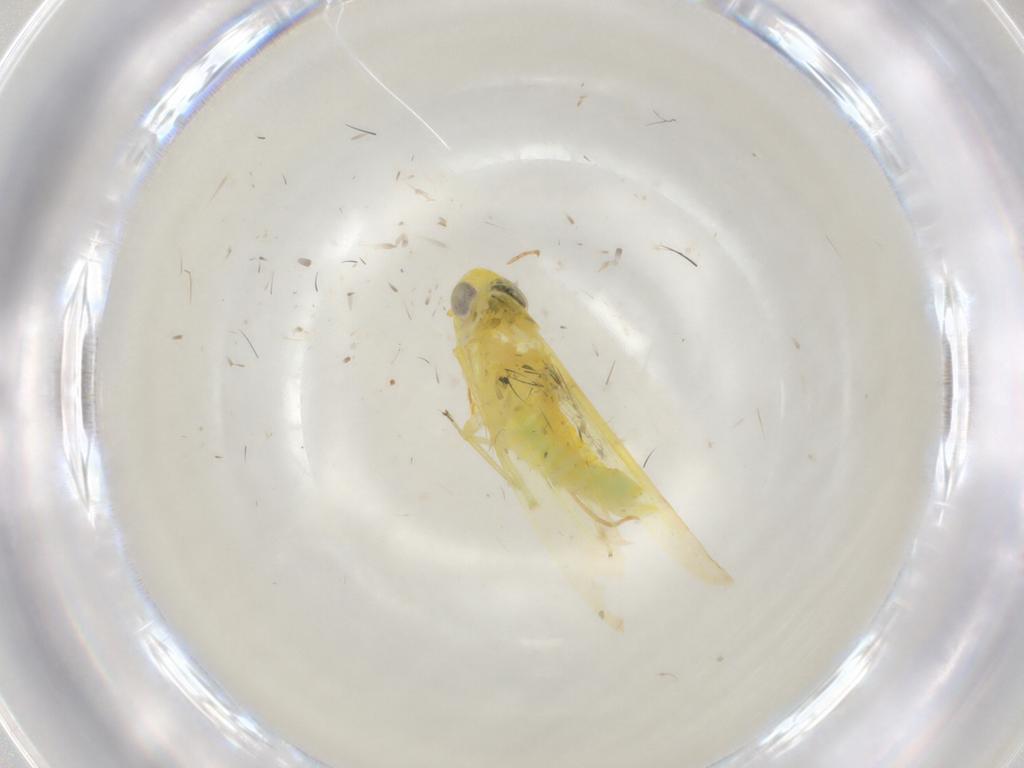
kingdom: Animalia
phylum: Arthropoda
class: Insecta
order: Hemiptera
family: Cicadellidae
